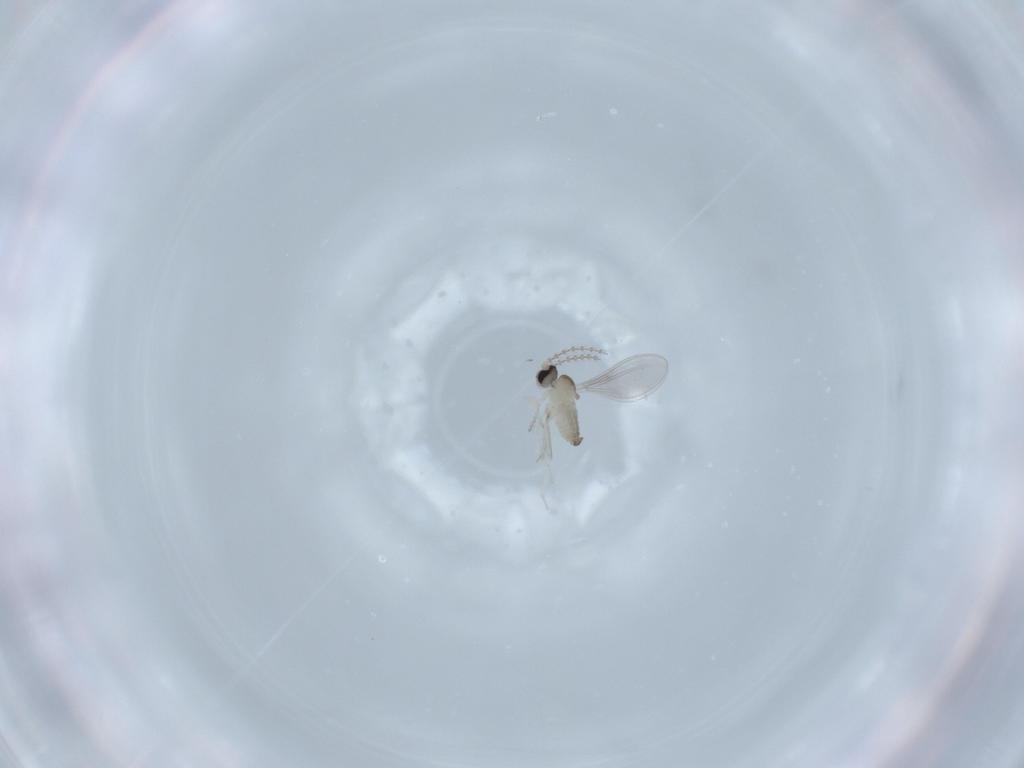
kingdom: Animalia
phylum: Arthropoda
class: Insecta
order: Diptera
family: Cecidomyiidae
